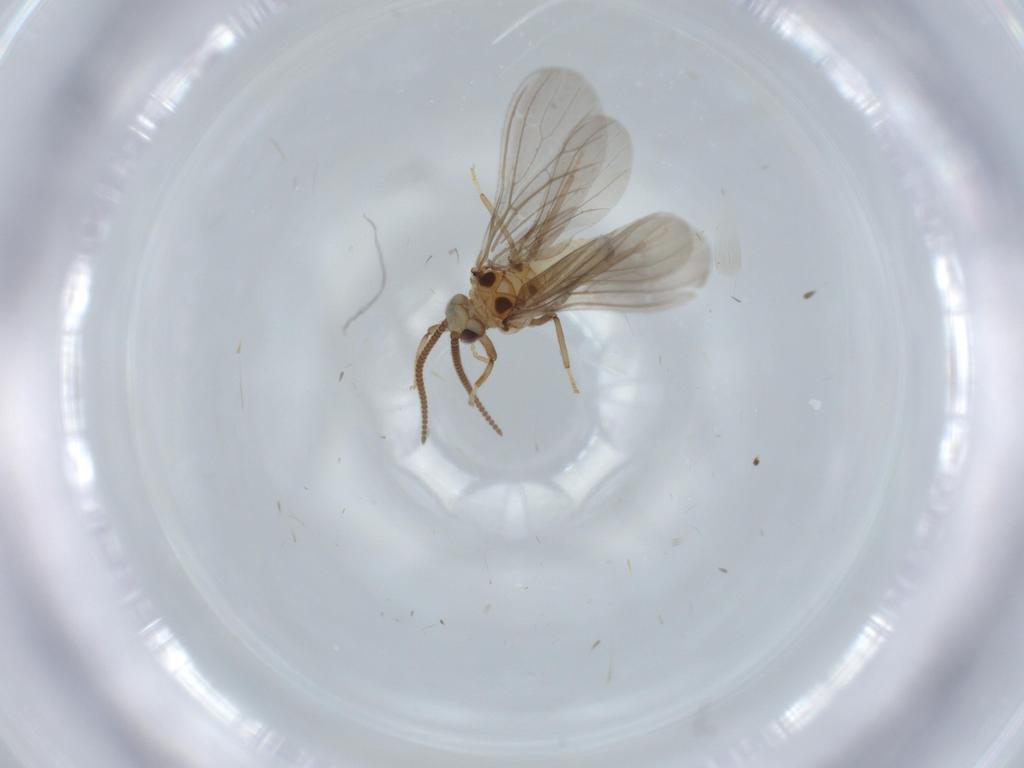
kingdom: Animalia
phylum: Arthropoda
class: Insecta
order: Neuroptera
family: Coniopterygidae
